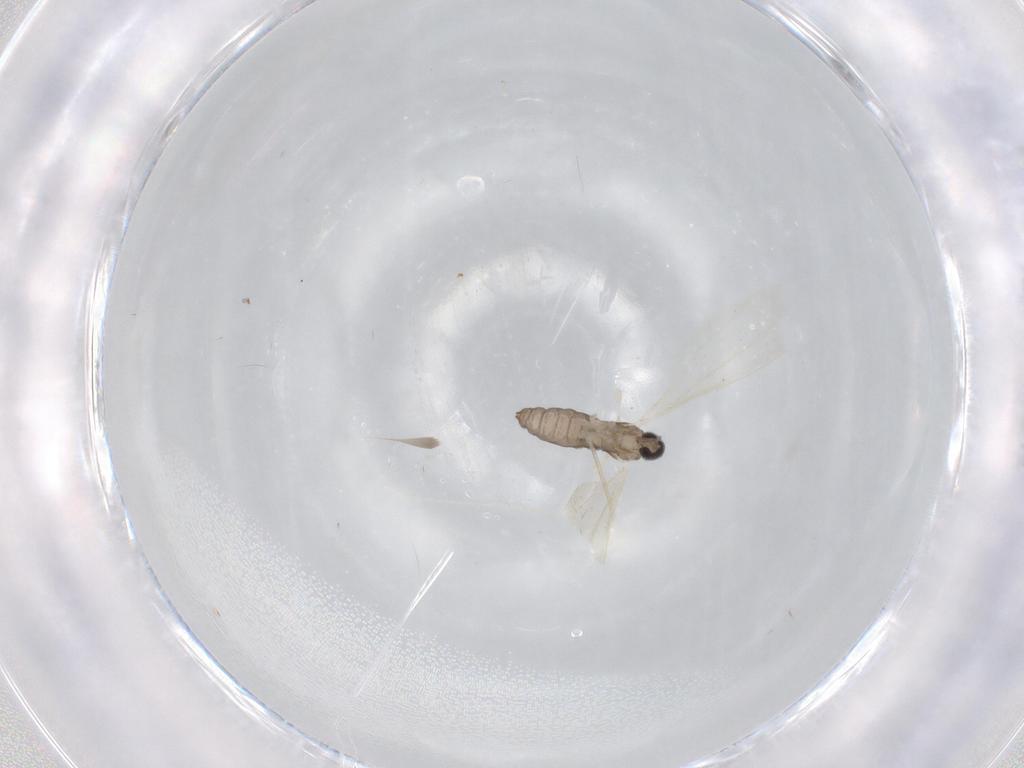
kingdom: Animalia
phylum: Arthropoda
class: Insecta
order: Diptera
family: Cecidomyiidae
